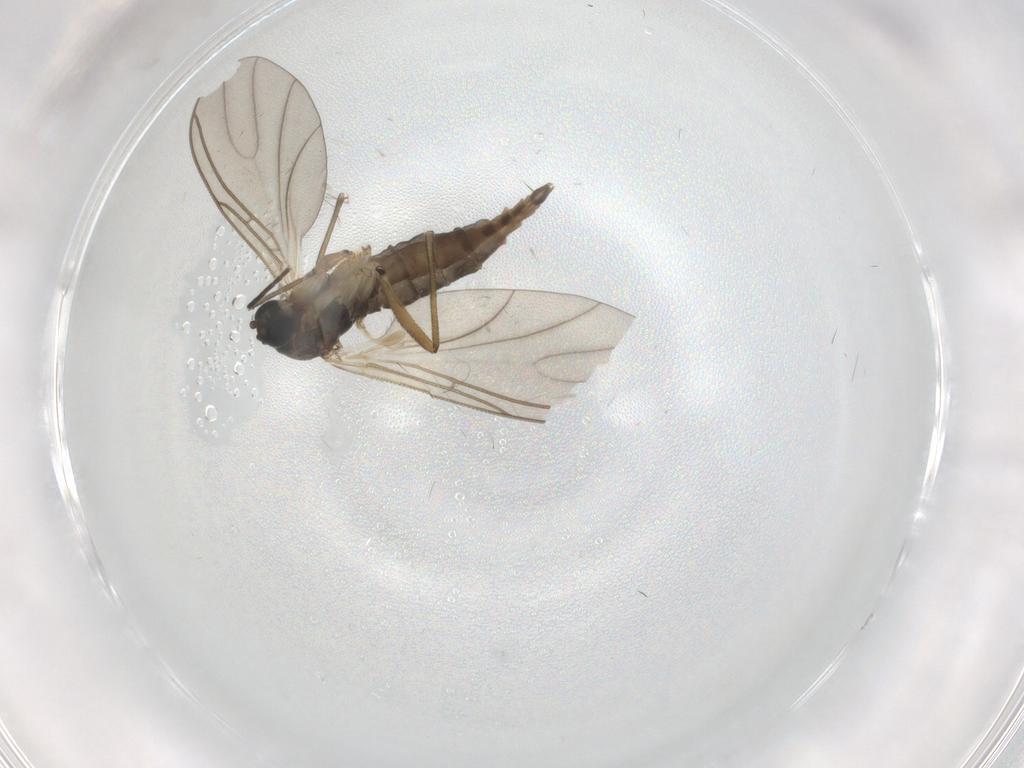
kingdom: Animalia
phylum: Arthropoda
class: Insecta
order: Diptera
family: Sciaridae
